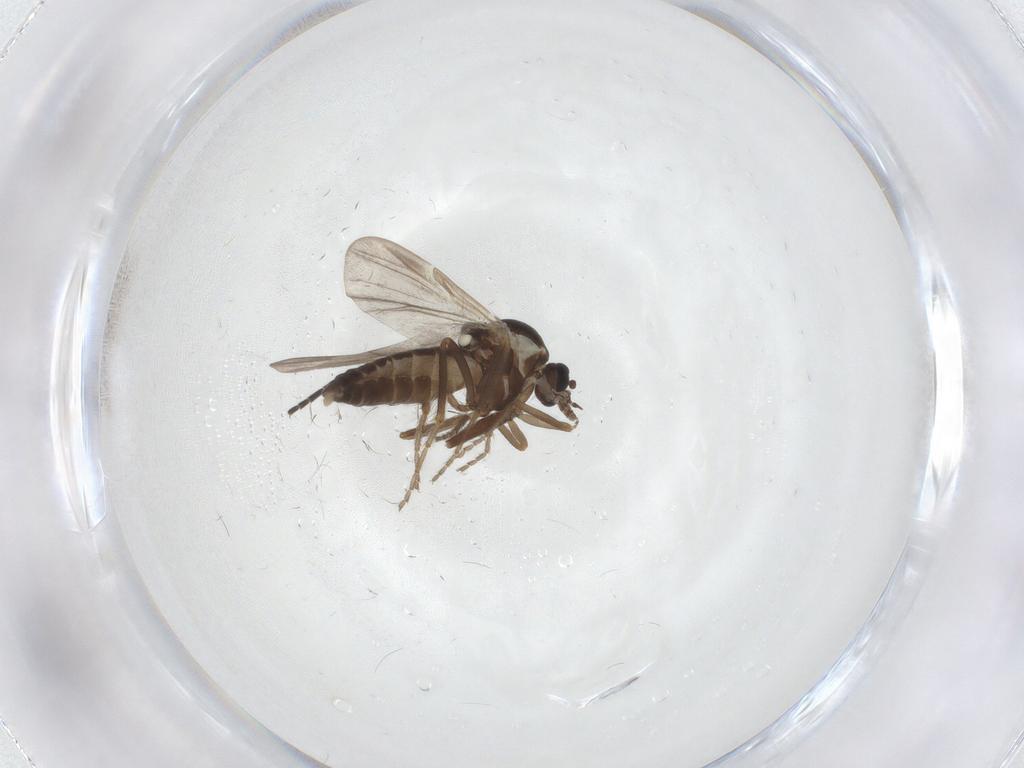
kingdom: Animalia
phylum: Arthropoda
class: Insecta
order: Diptera
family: Ceratopogonidae
